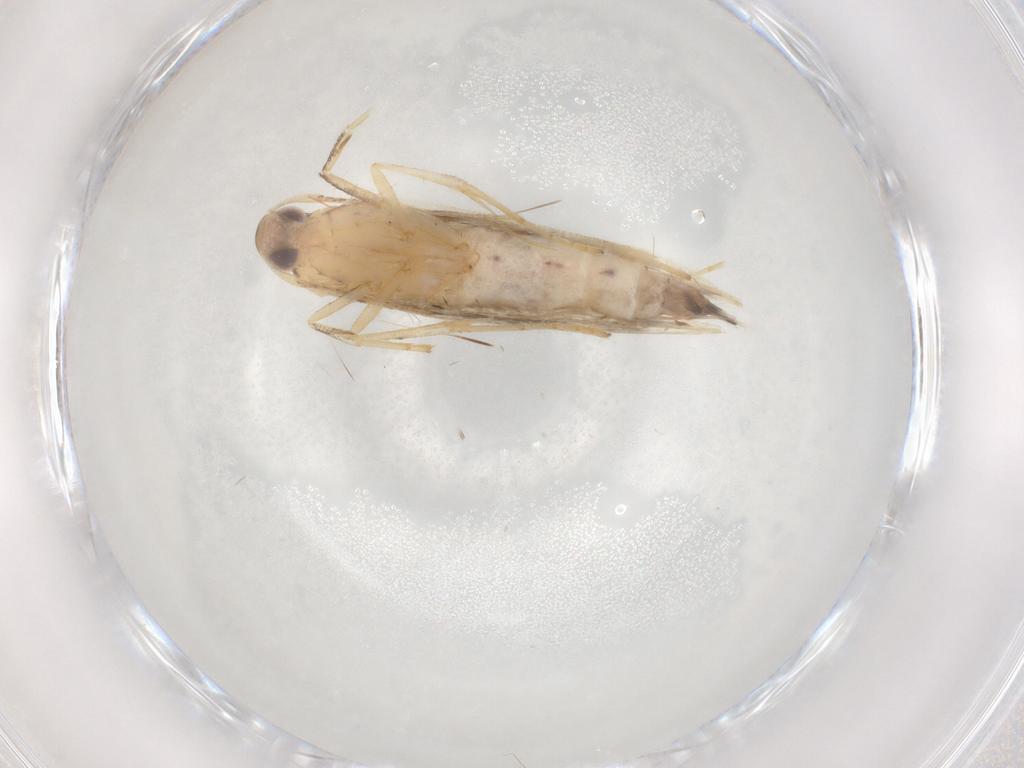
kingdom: Animalia
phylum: Arthropoda
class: Insecta
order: Lepidoptera
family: Cosmopterigidae
